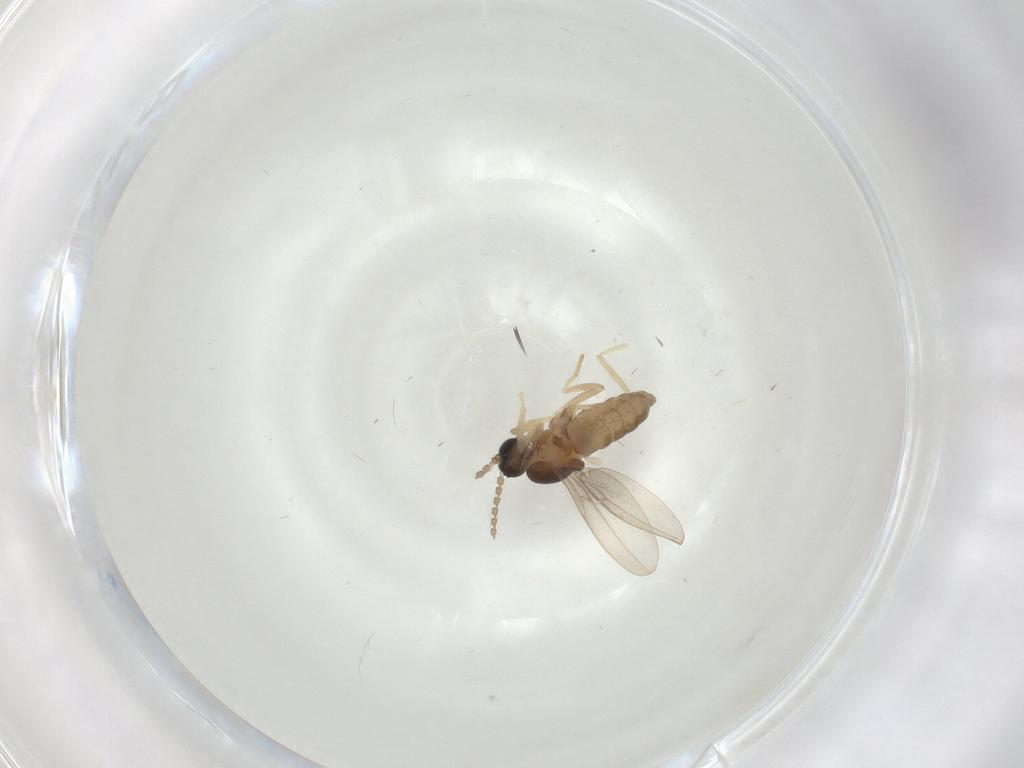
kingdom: Animalia
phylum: Arthropoda
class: Insecta
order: Diptera
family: Cecidomyiidae
